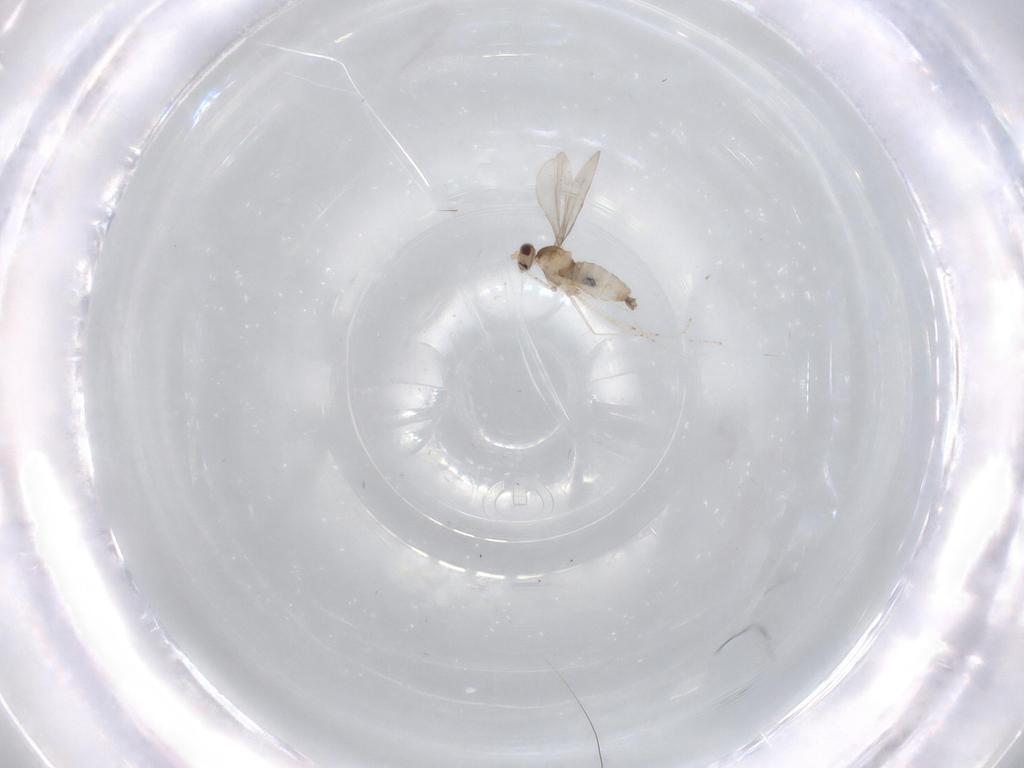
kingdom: Animalia
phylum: Arthropoda
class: Insecta
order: Diptera
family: Cecidomyiidae
